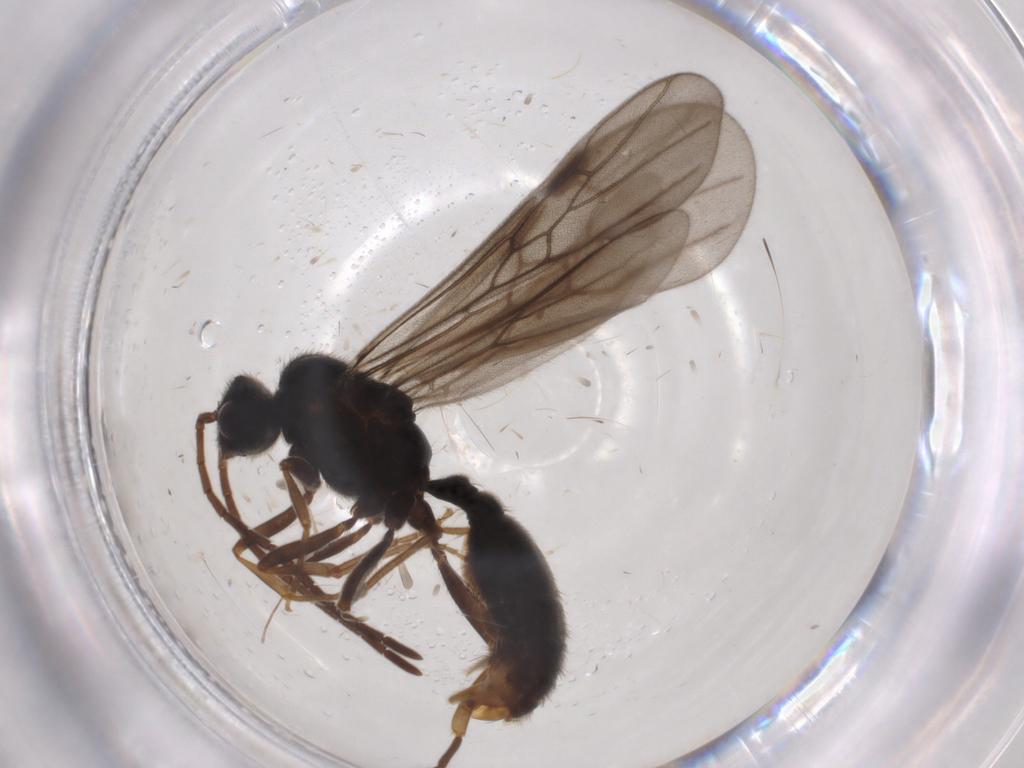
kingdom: Animalia
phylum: Arthropoda
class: Insecta
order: Hymenoptera
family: Formicidae
